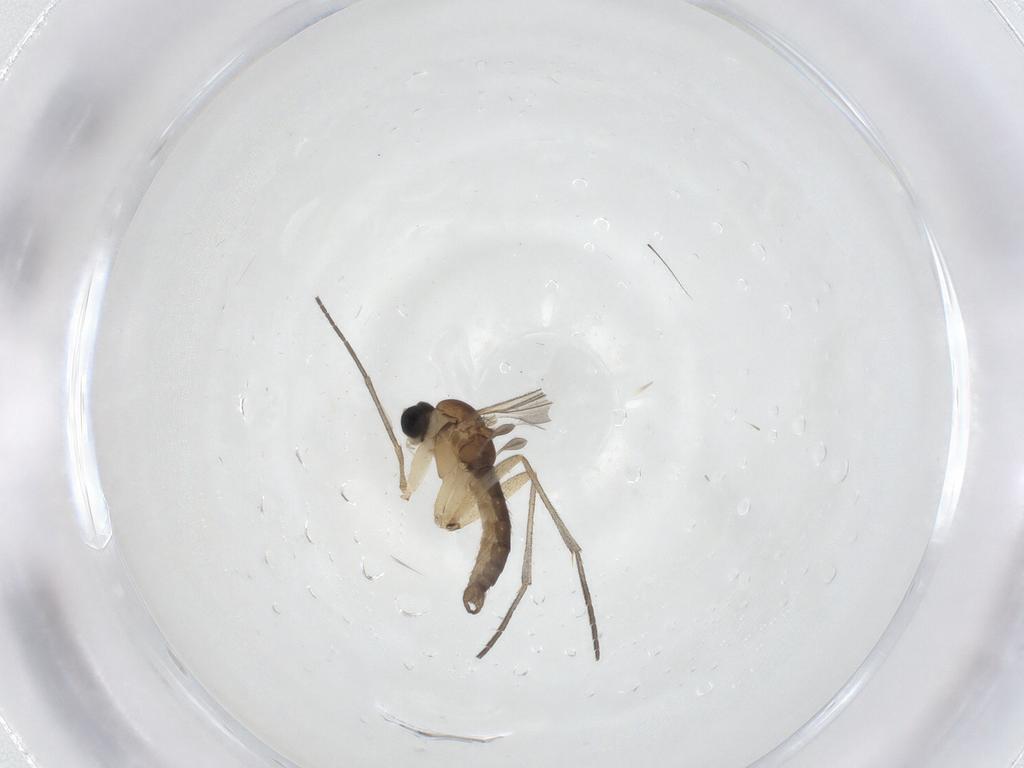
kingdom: Animalia
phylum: Arthropoda
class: Insecta
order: Diptera
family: Sciaridae
